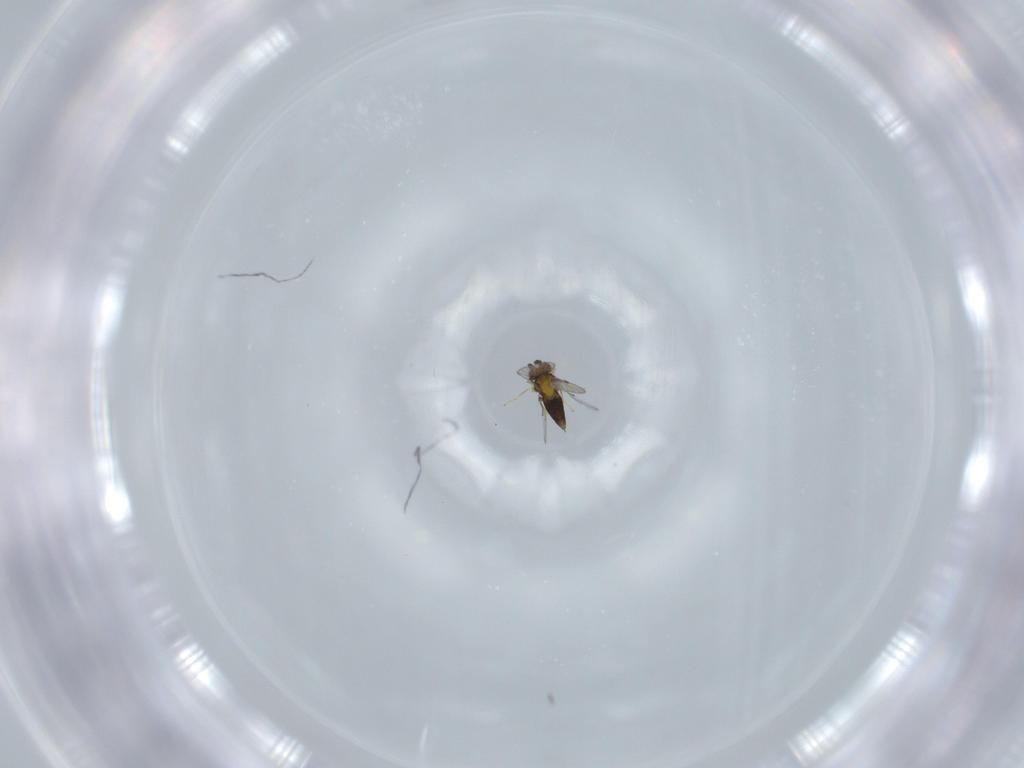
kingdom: Animalia
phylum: Arthropoda
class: Insecta
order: Hymenoptera
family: Trichogrammatidae
